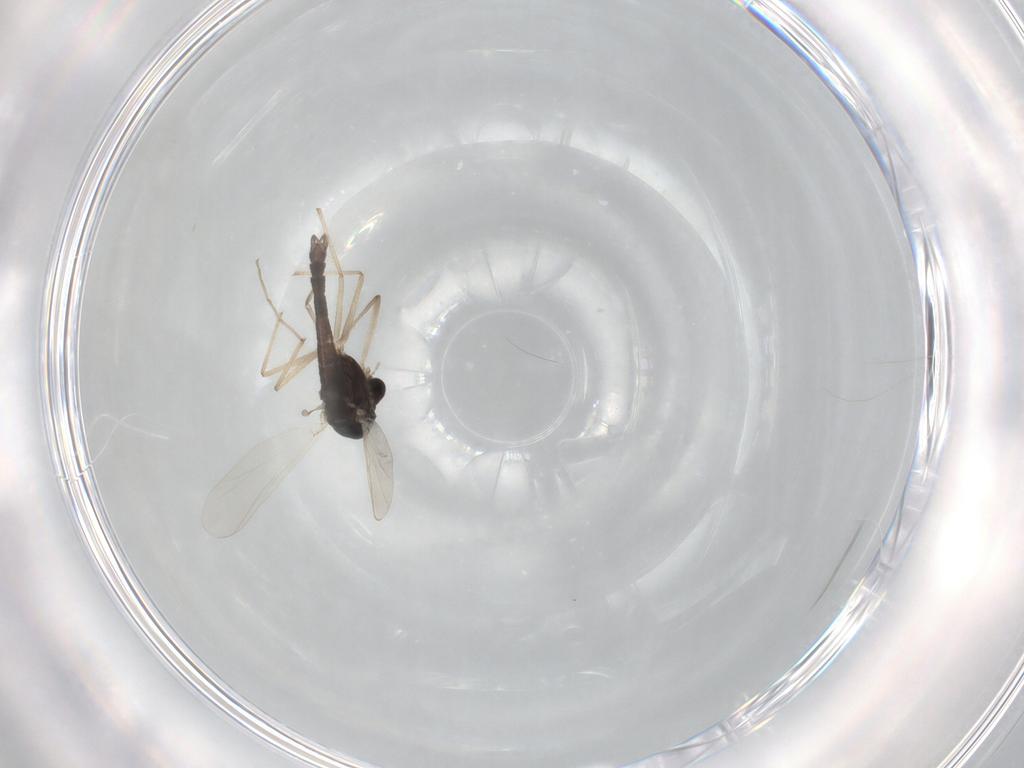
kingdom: Animalia
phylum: Arthropoda
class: Insecta
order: Diptera
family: Chironomidae
